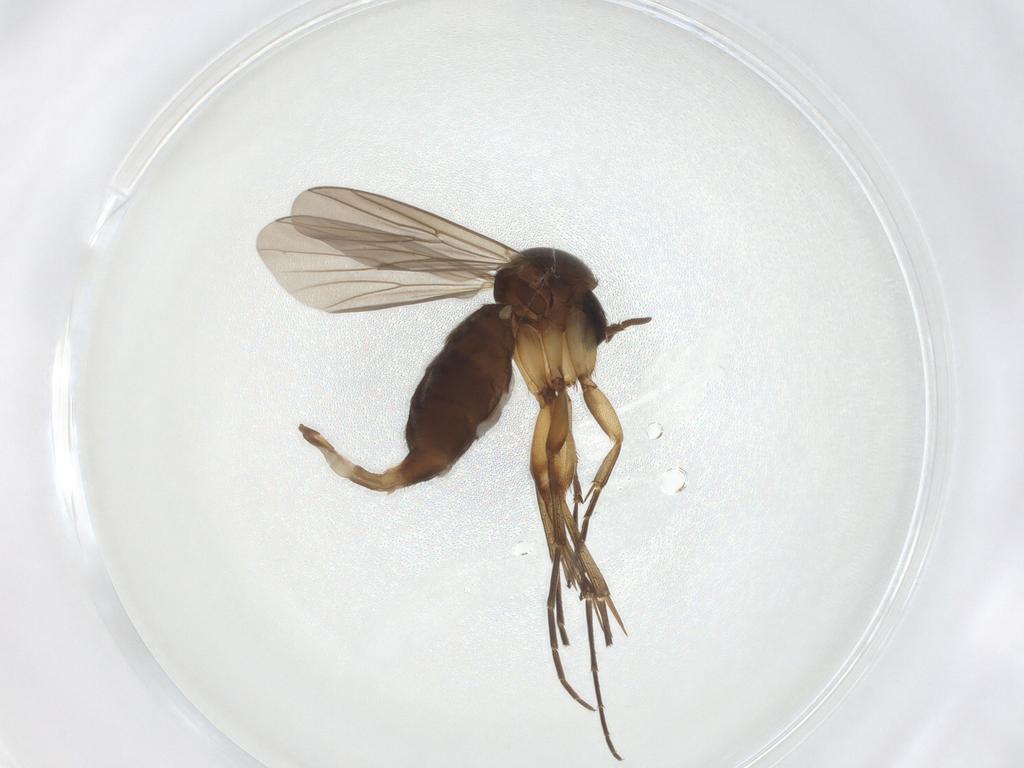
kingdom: Animalia
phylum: Arthropoda
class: Insecta
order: Diptera
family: Mycetophilidae
